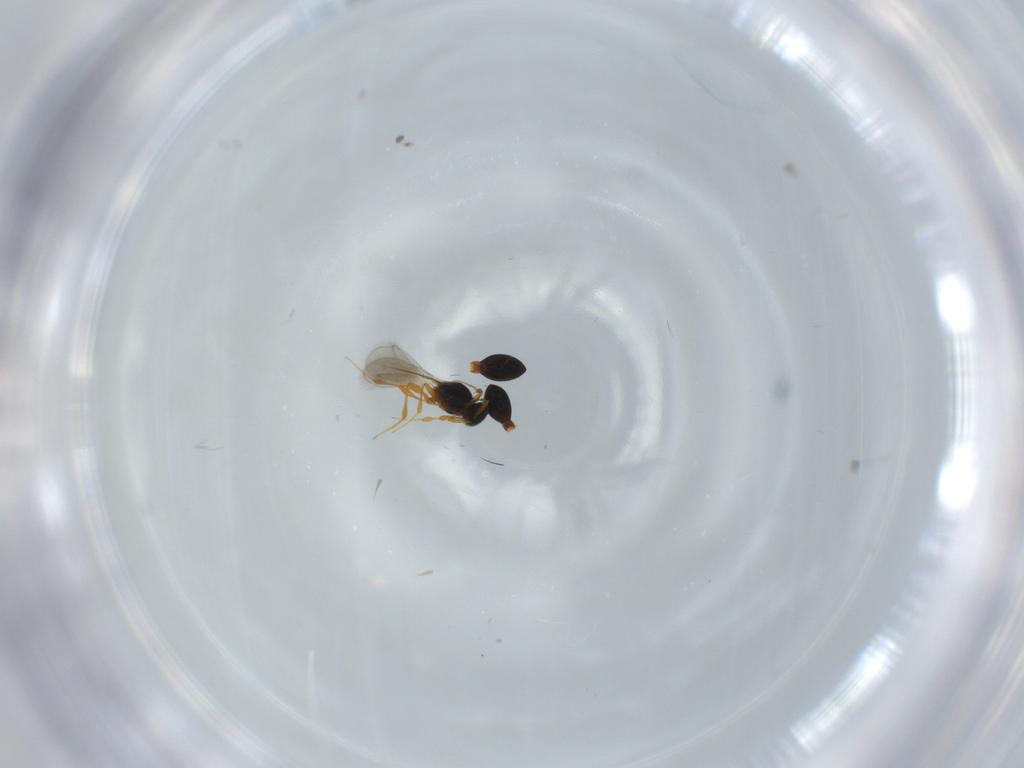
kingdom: Animalia
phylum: Arthropoda
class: Insecta
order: Hymenoptera
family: Platygastridae
